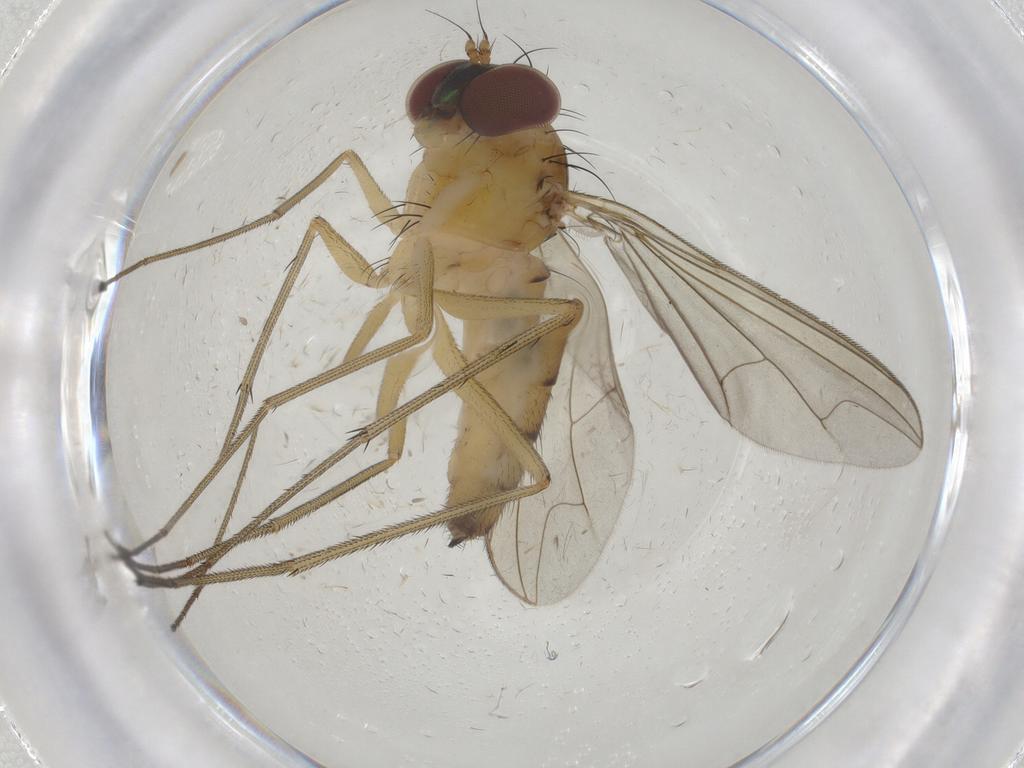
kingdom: Animalia
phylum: Arthropoda
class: Insecta
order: Diptera
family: Dolichopodidae
